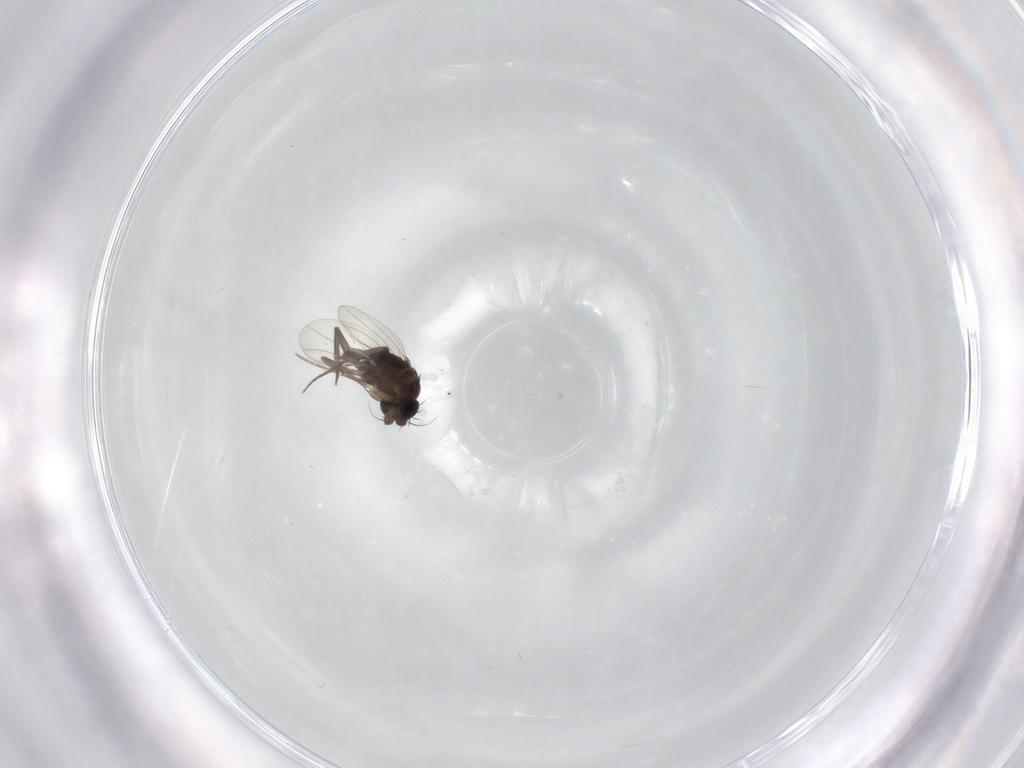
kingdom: Animalia
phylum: Arthropoda
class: Insecta
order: Diptera
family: Phoridae
